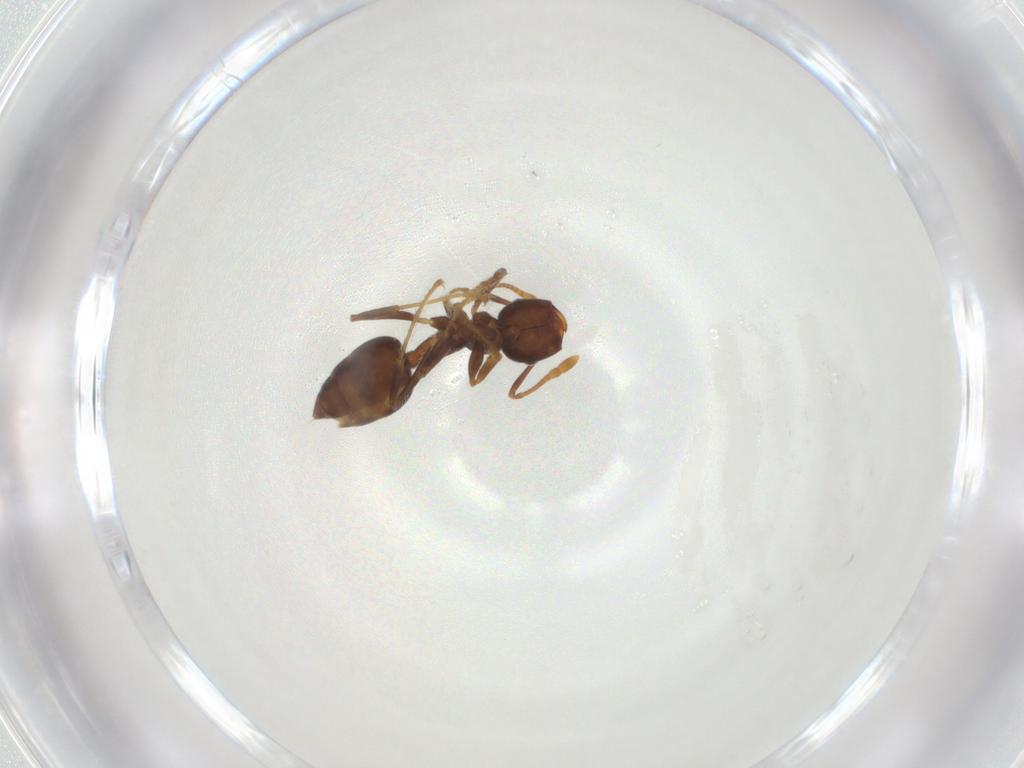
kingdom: Animalia
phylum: Arthropoda
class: Insecta
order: Hymenoptera
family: Formicidae
